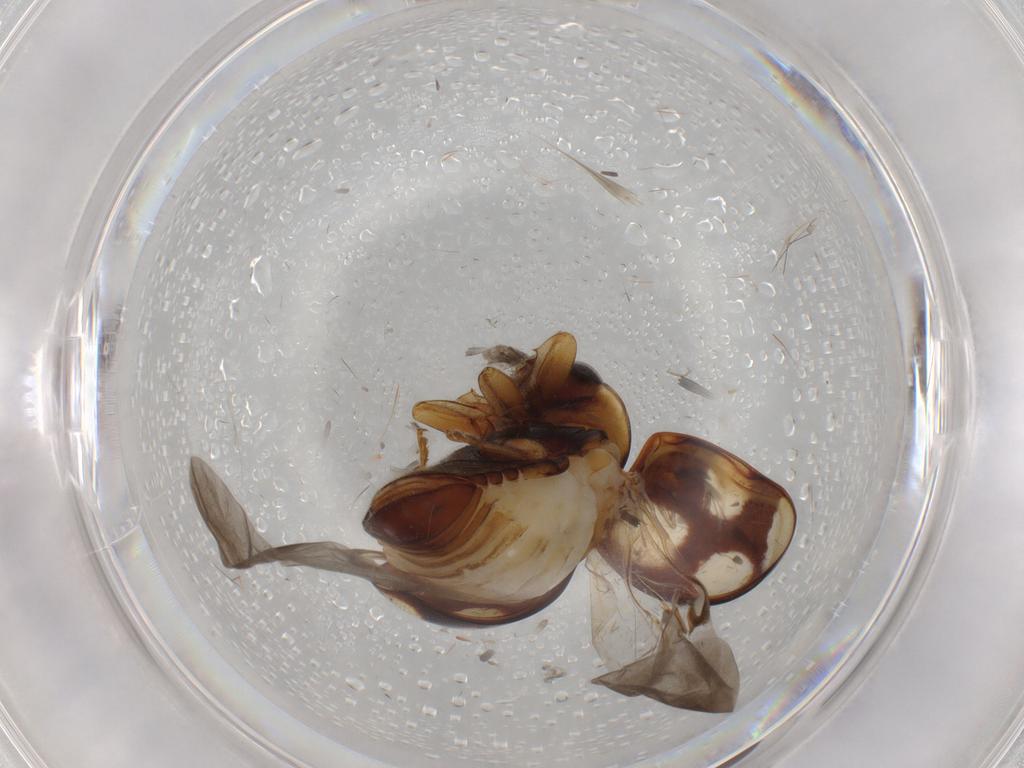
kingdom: Animalia
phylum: Arthropoda
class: Insecta
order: Coleoptera
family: Coccinellidae
